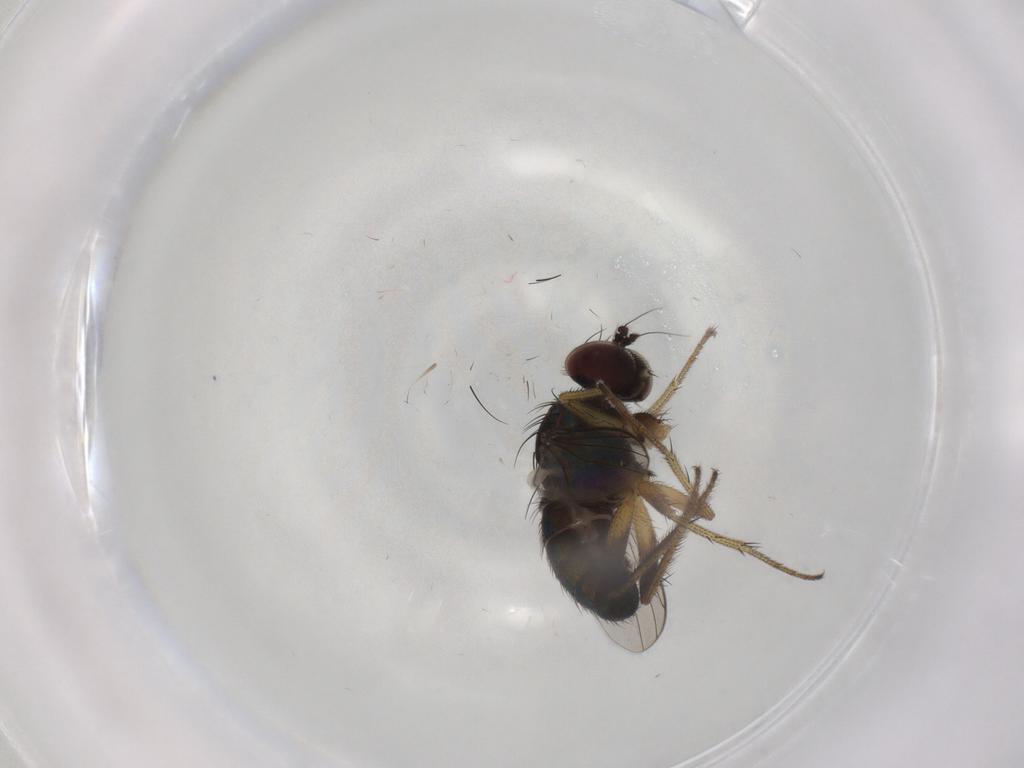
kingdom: Animalia
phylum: Arthropoda
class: Insecta
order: Diptera
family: Dolichopodidae
